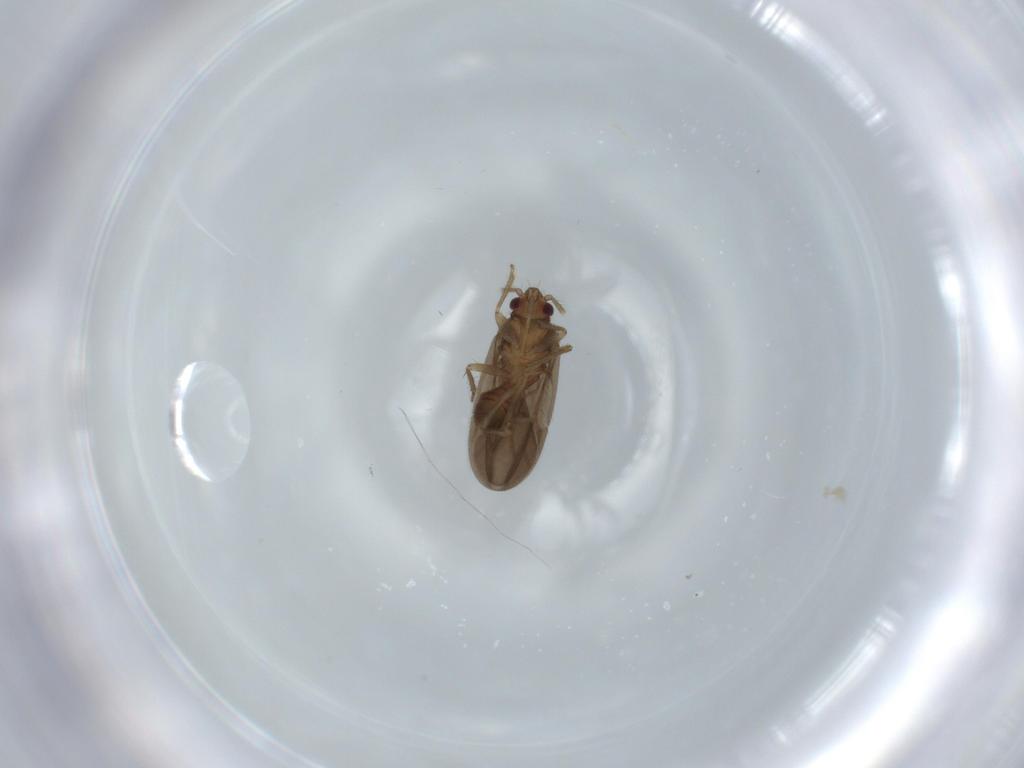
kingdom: Animalia
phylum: Arthropoda
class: Insecta
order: Hemiptera
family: Ceratocombidae
